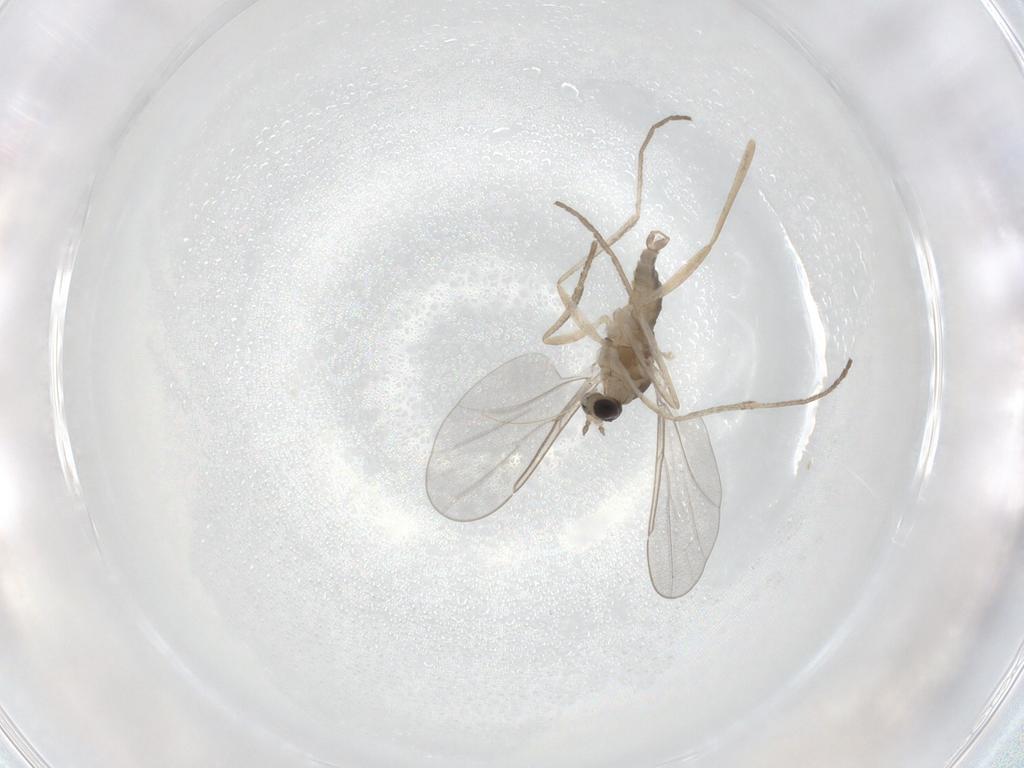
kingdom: Animalia
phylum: Arthropoda
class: Insecta
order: Diptera
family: Cecidomyiidae
